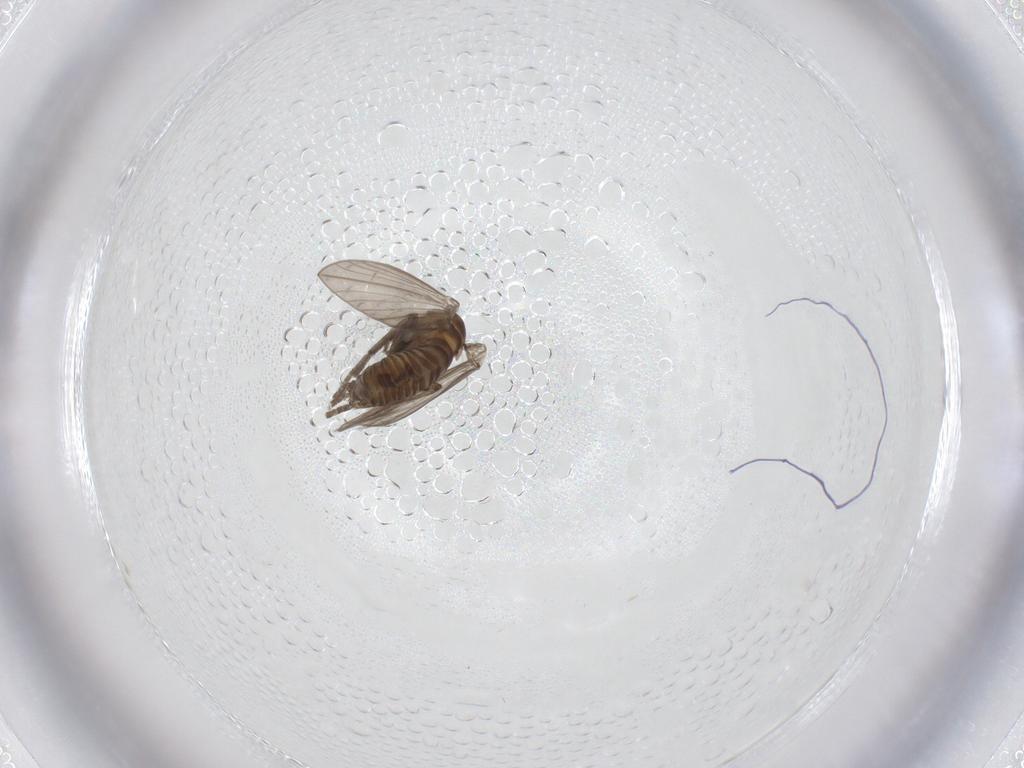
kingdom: Animalia
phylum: Arthropoda
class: Insecta
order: Diptera
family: Psychodidae
